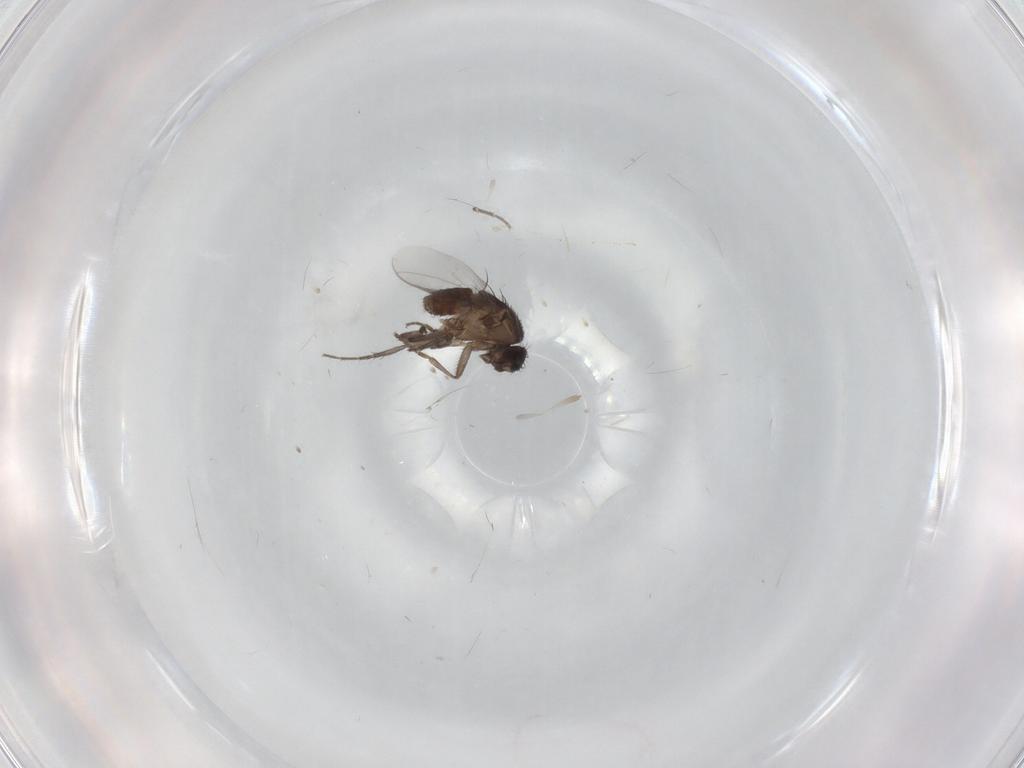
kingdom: Animalia
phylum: Arthropoda
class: Insecta
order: Diptera
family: Sphaeroceridae
